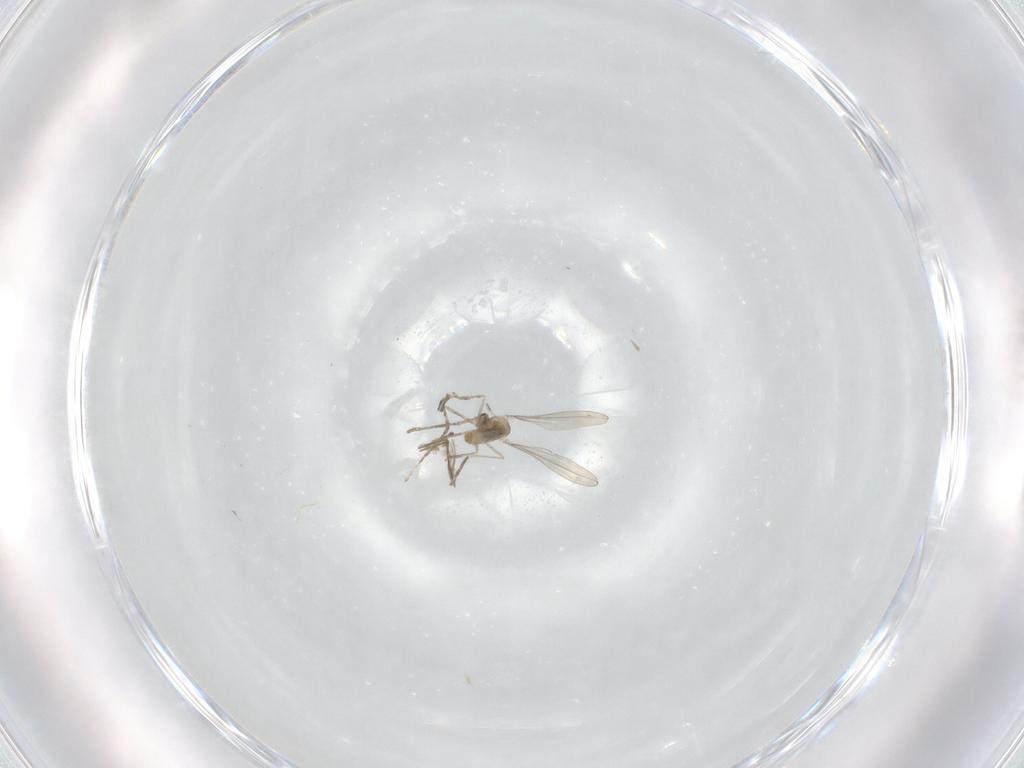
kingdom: Animalia
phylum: Arthropoda
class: Insecta
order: Diptera
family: Cecidomyiidae
